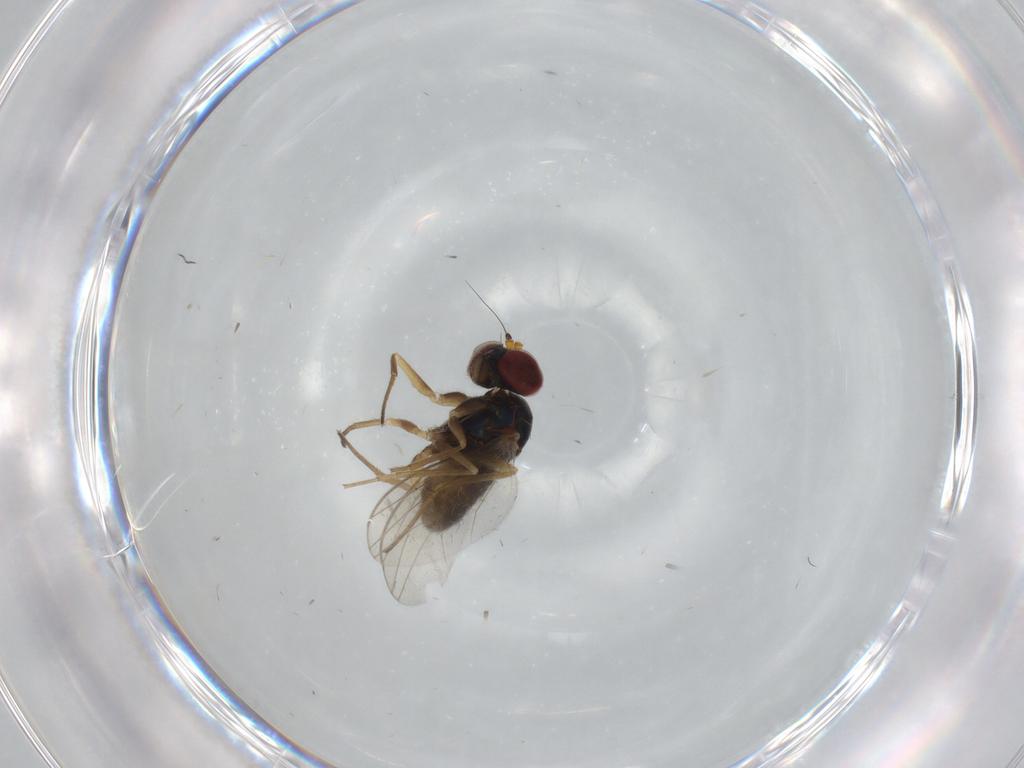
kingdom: Animalia
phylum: Arthropoda
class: Insecta
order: Diptera
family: Dolichopodidae
